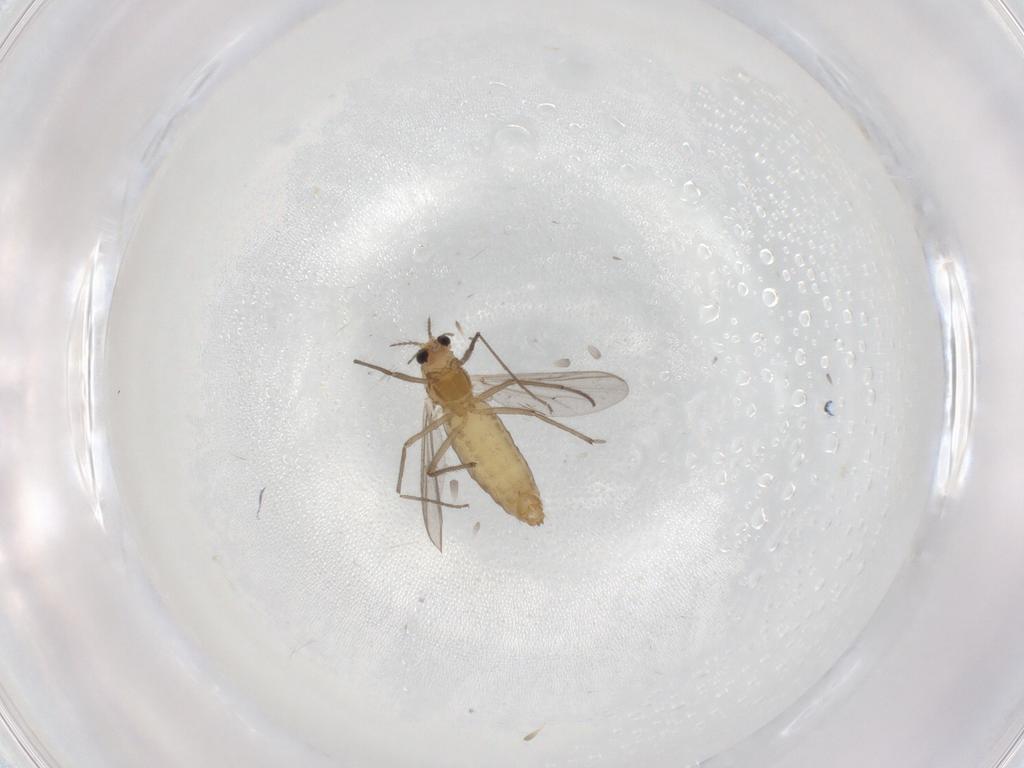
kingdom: Animalia
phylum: Arthropoda
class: Insecta
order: Diptera
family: Chironomidae
